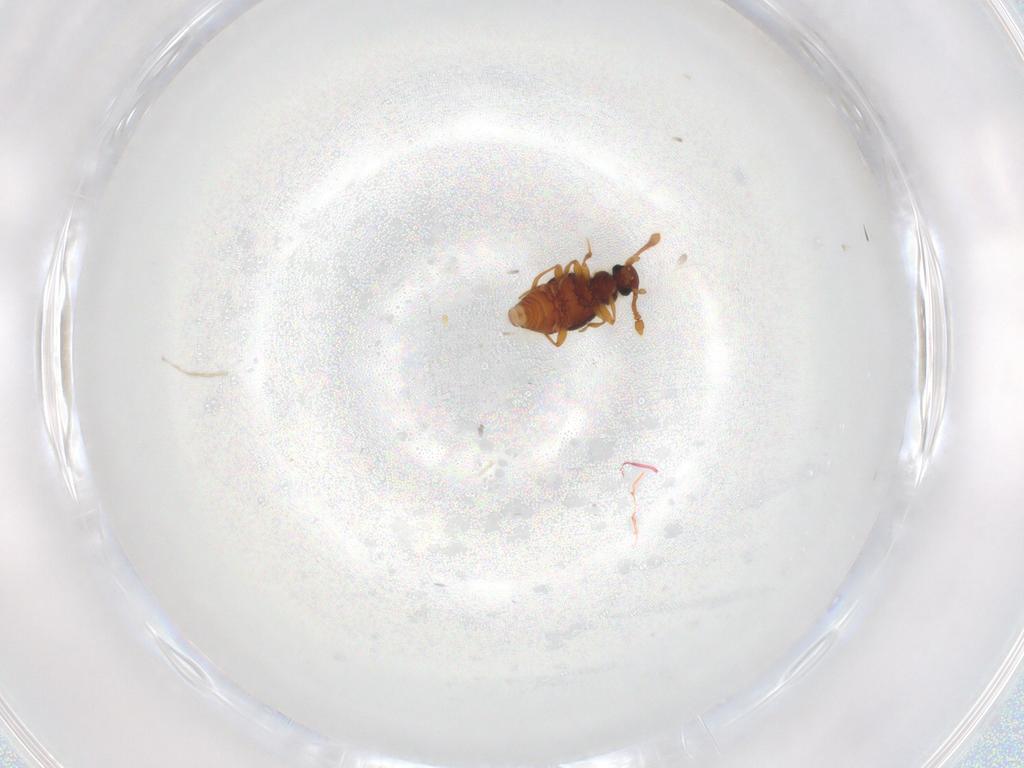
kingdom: Animalia
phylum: Arthropoda
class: Insecta
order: Coleoptera
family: Staphylinidae
